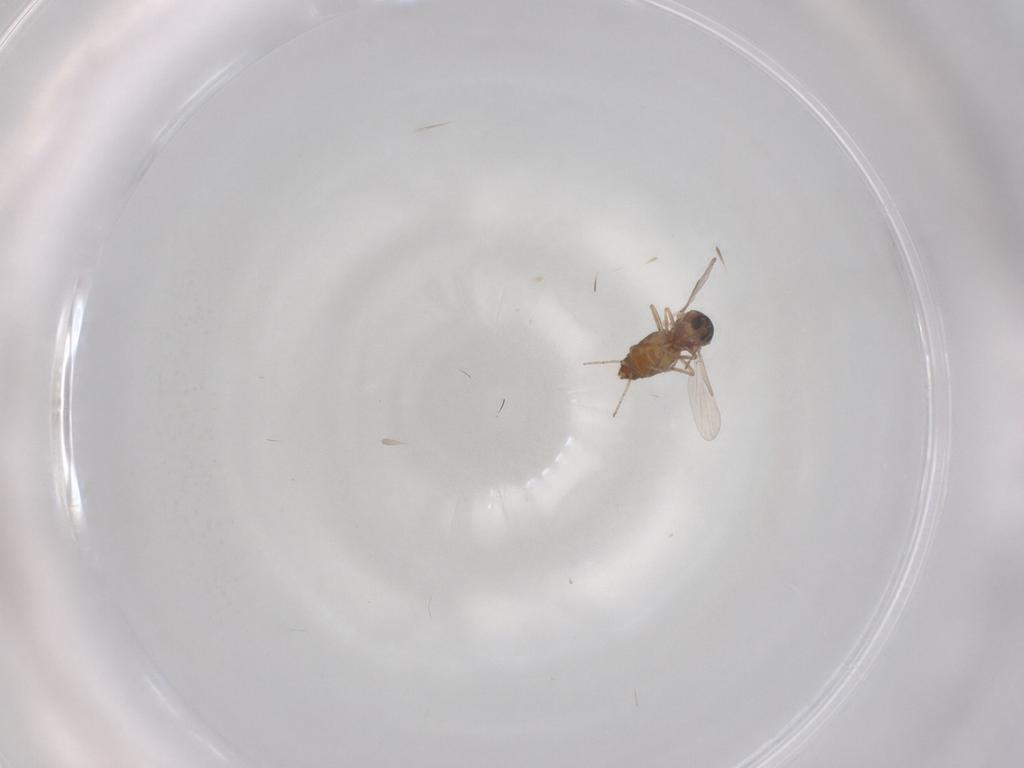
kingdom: Animalia
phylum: Arthropoda
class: Insecta
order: Diptera
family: Ceratopogonidae
